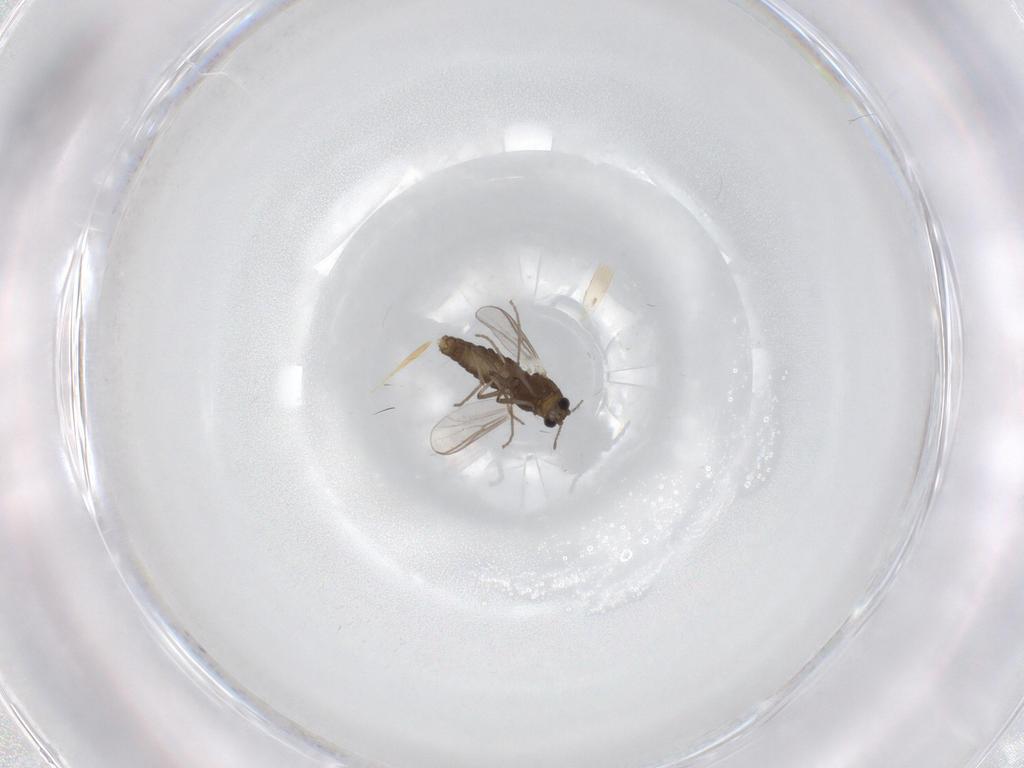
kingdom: Animalia
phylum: Arthropoda
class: Insecta
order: Diptera
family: Chironomidae
